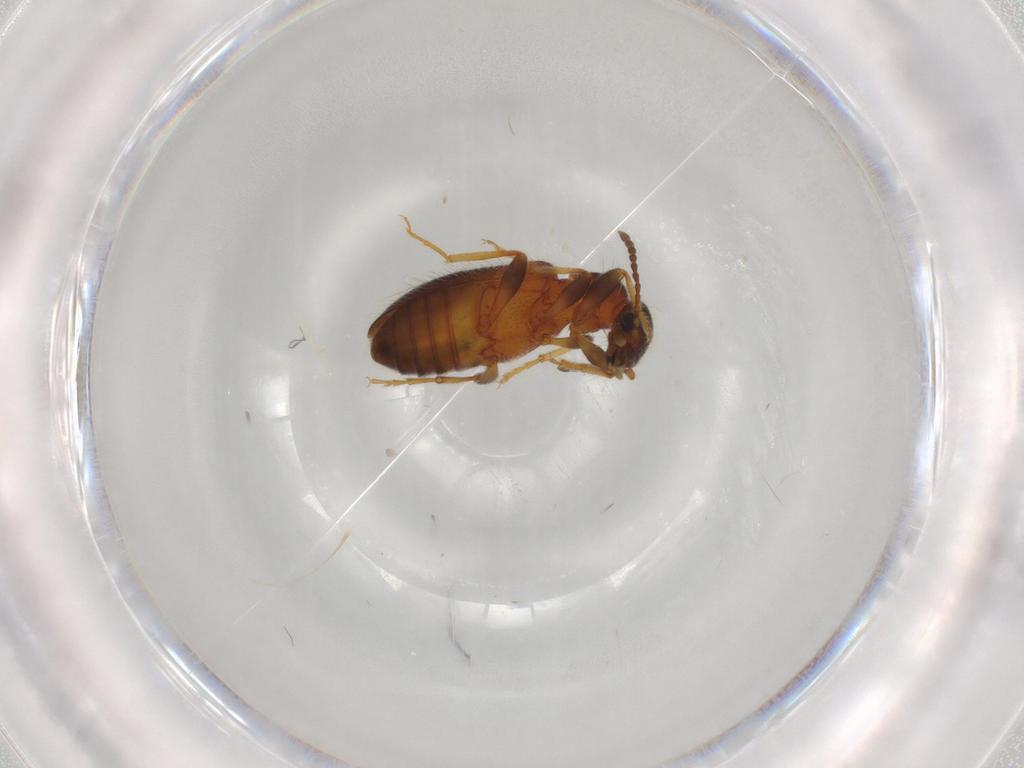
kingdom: Animalia
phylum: Arthropoda
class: Insecta
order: Coleoptera
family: Anthicidae
